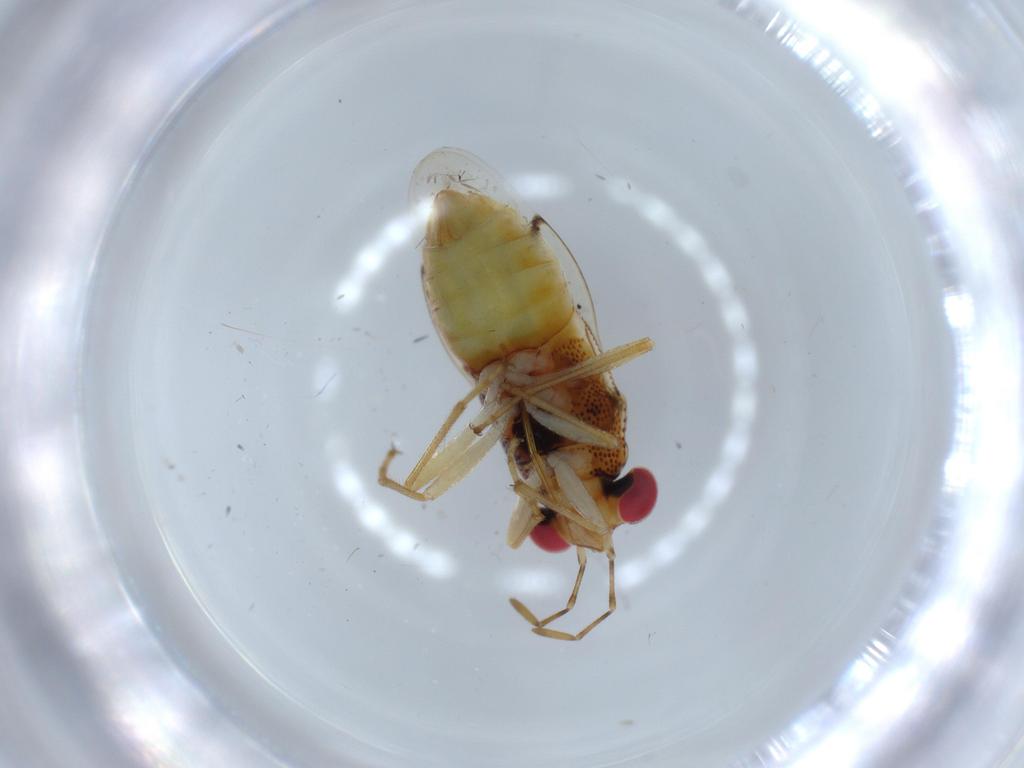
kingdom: Animalia
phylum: Arthropoda
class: Insecta
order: Hemiptera
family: Geocoridae
